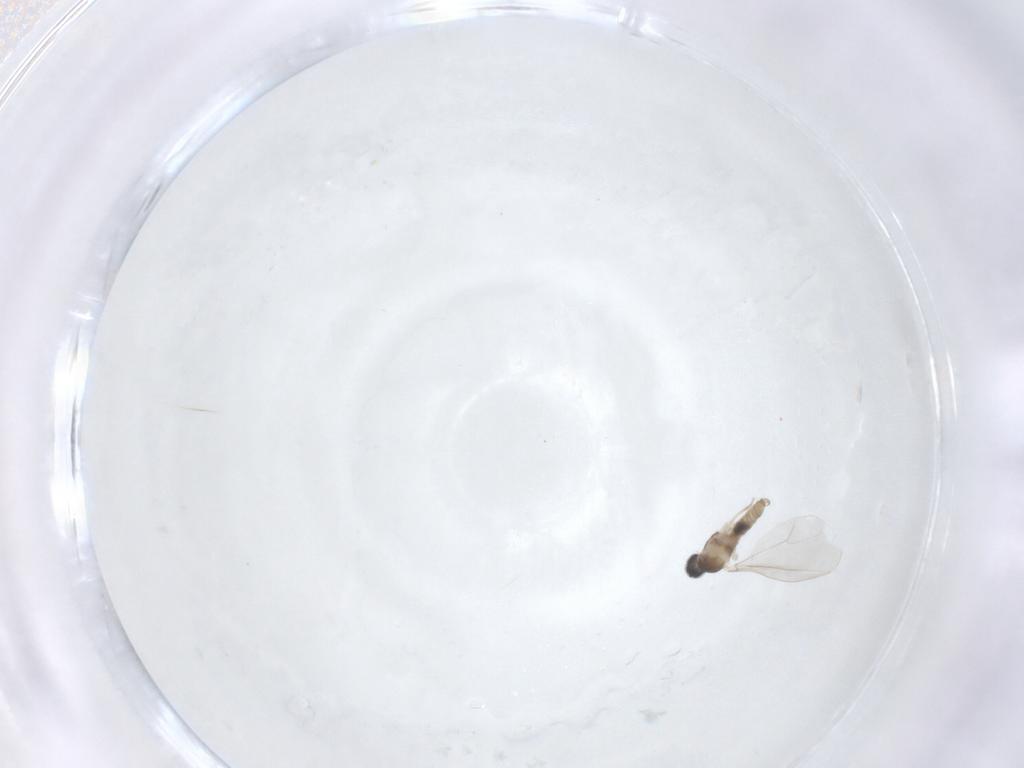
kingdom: Animalia
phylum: Arthropoda
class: Insecta
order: Diptera
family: Cecidomyiidae
